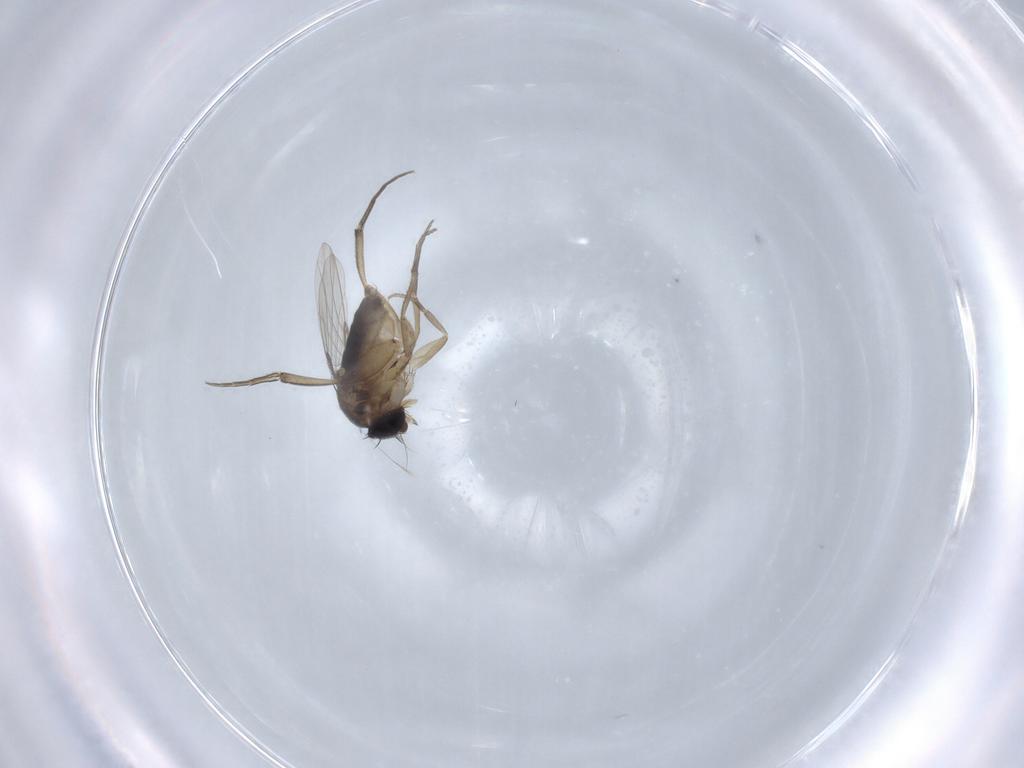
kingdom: Animalia
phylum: Arthropoda
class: Insecta
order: Diptera
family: Phoridae
